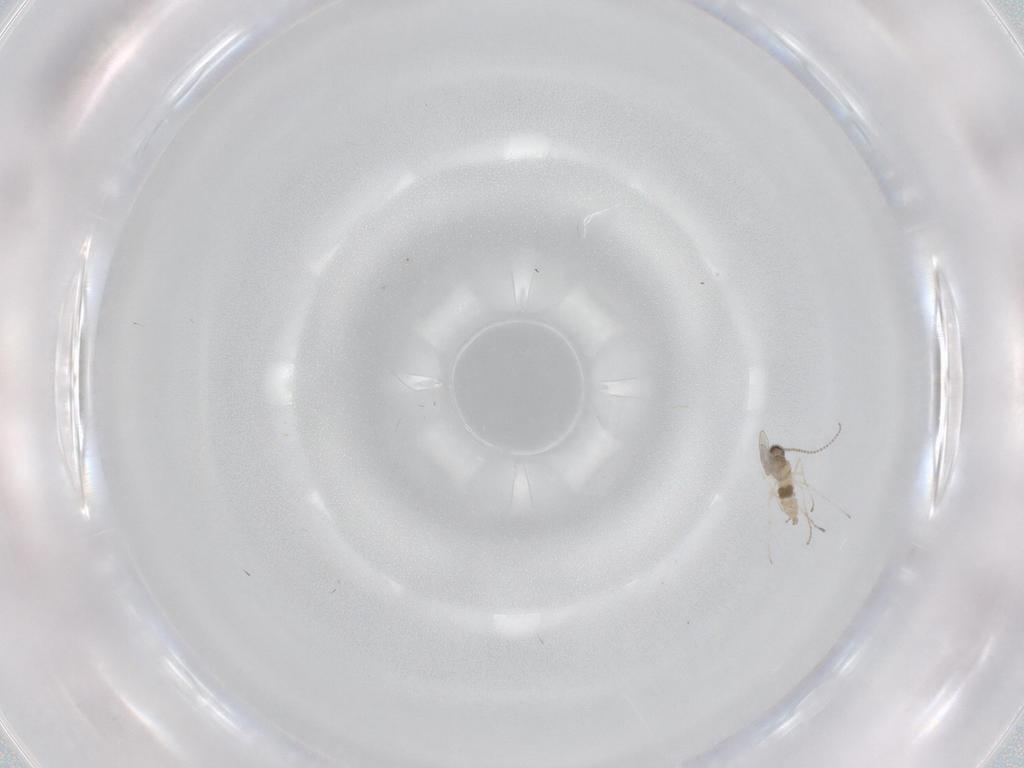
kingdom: Animalia
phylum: Arthropoda
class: Insecta
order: Diptera
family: Cecidomyiidae
